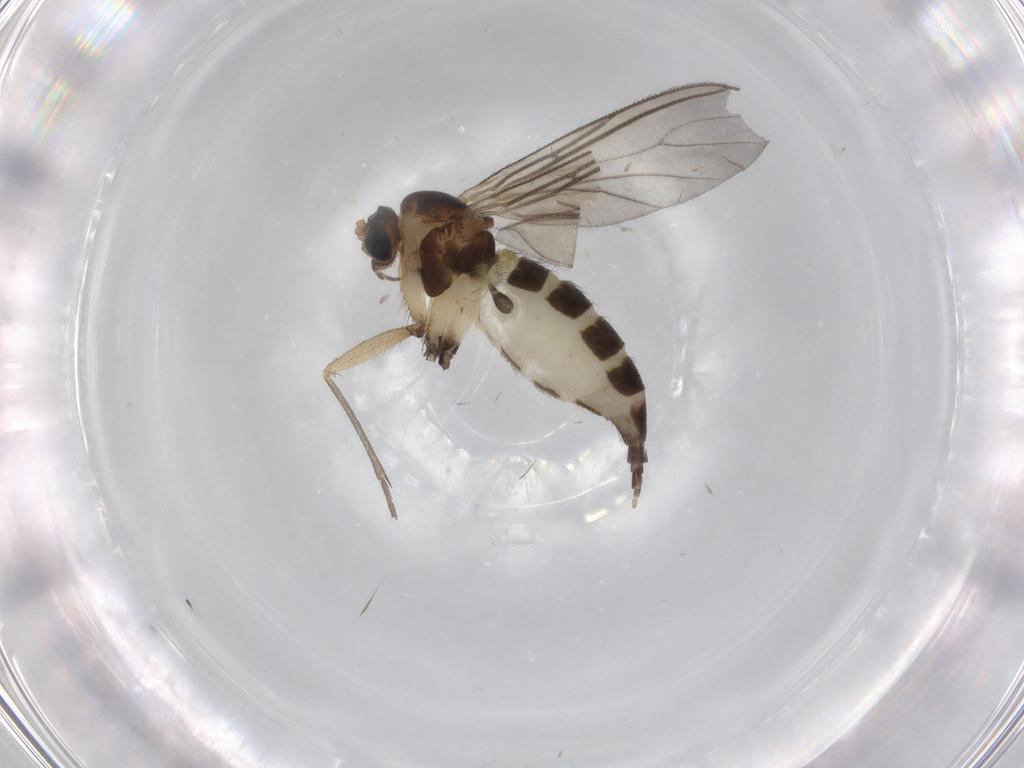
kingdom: Animalia
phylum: Arthropoda
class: Insecta
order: Diptera
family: Sciaridae
